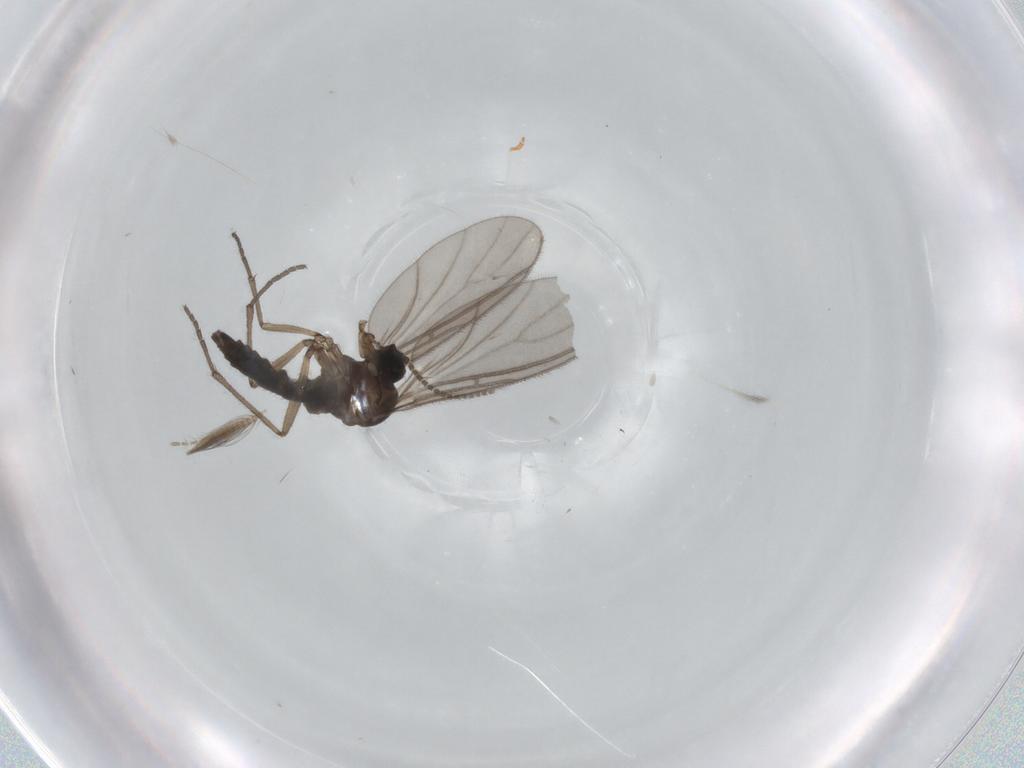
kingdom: Animalia
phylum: Arthropoda
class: Insecta
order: Diptera
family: Sciaridae
